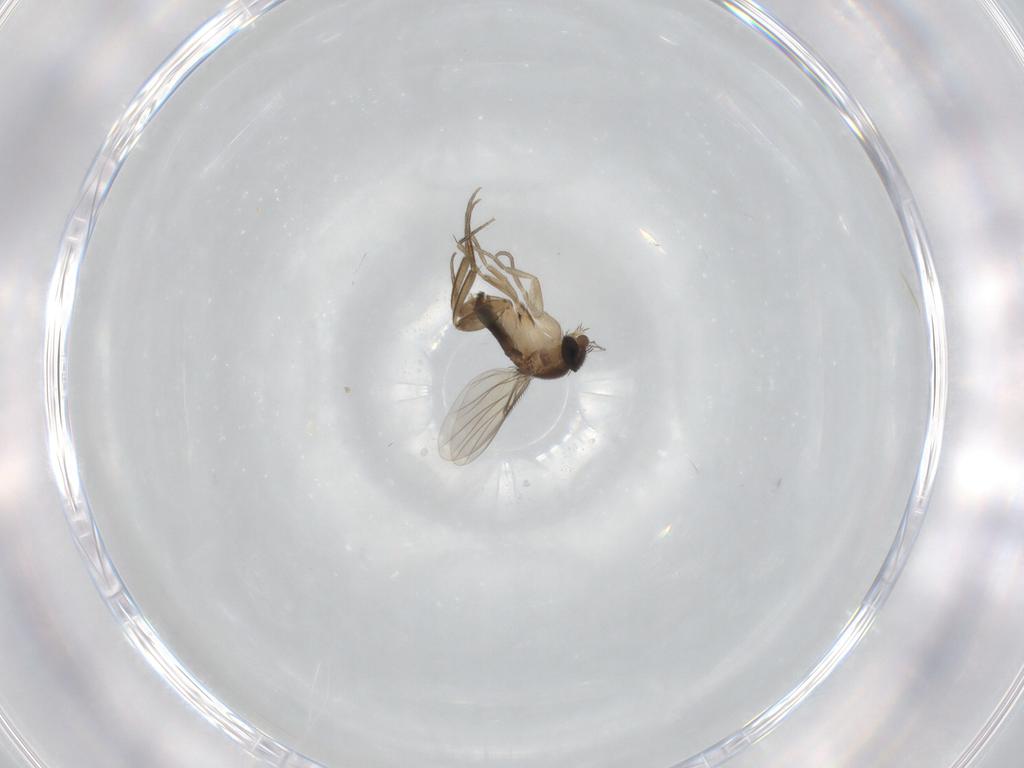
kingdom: Animalia
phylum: Arthropoda
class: Insecta
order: Diptera
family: Phoridae
